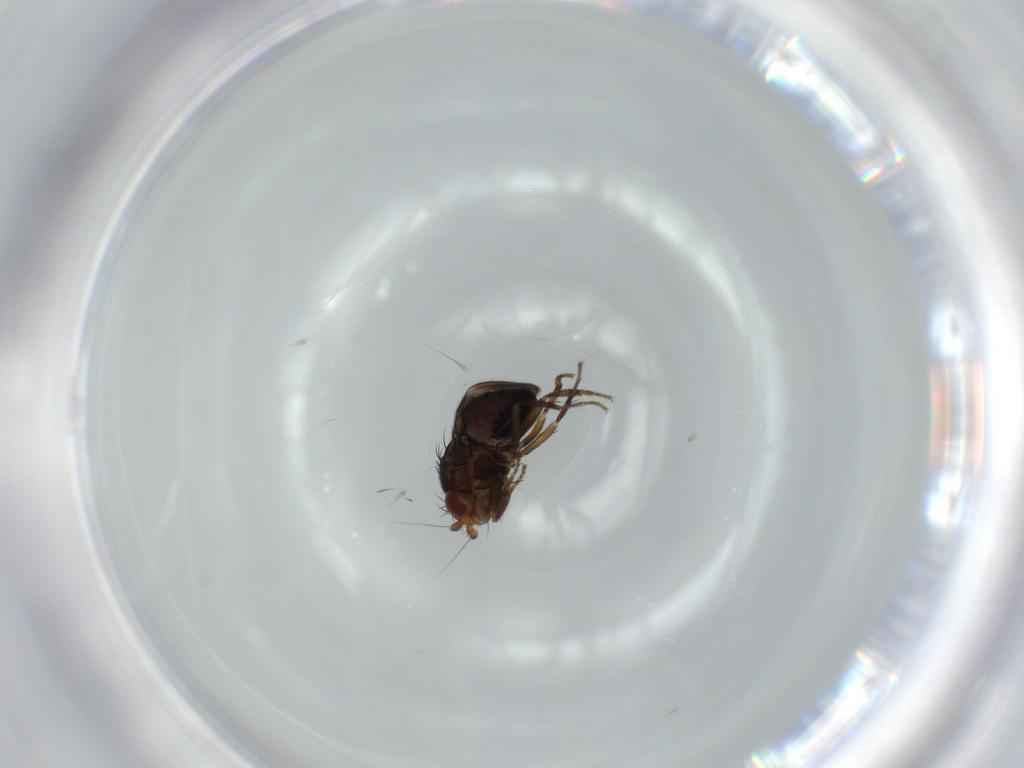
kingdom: Animalia
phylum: Arthropoda
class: Insecta
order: Diptera
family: Sphaeroceridae
